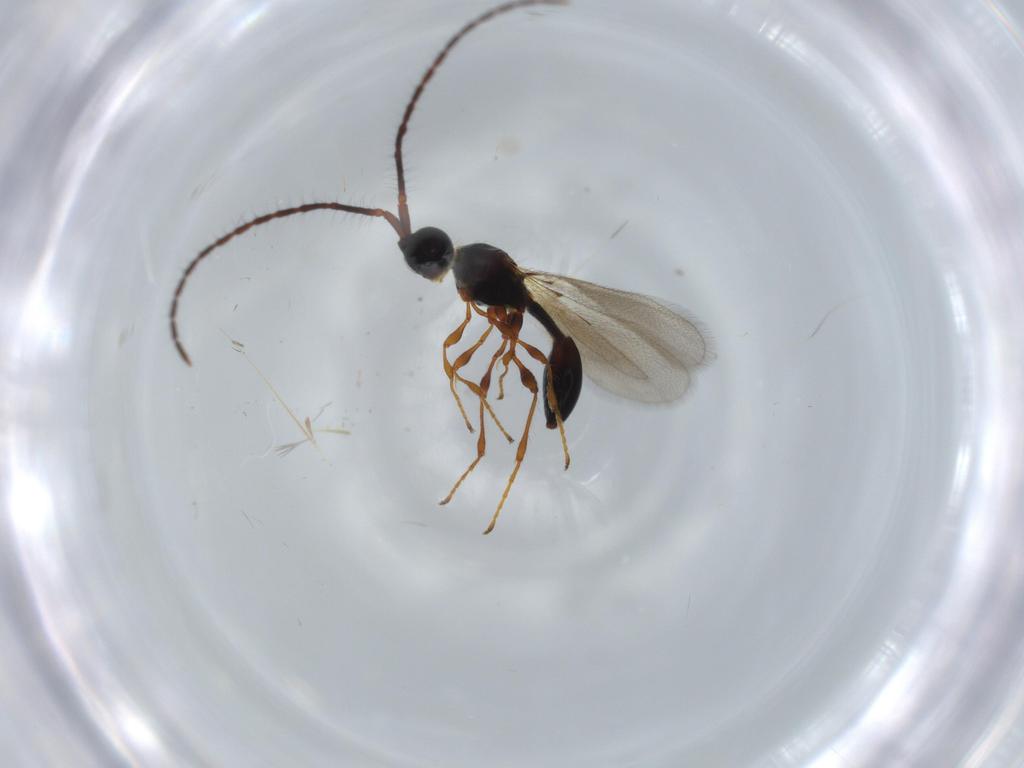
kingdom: Animalia
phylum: Arthropoda
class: Insecta
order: Hymenoptera
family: Diapriidae
